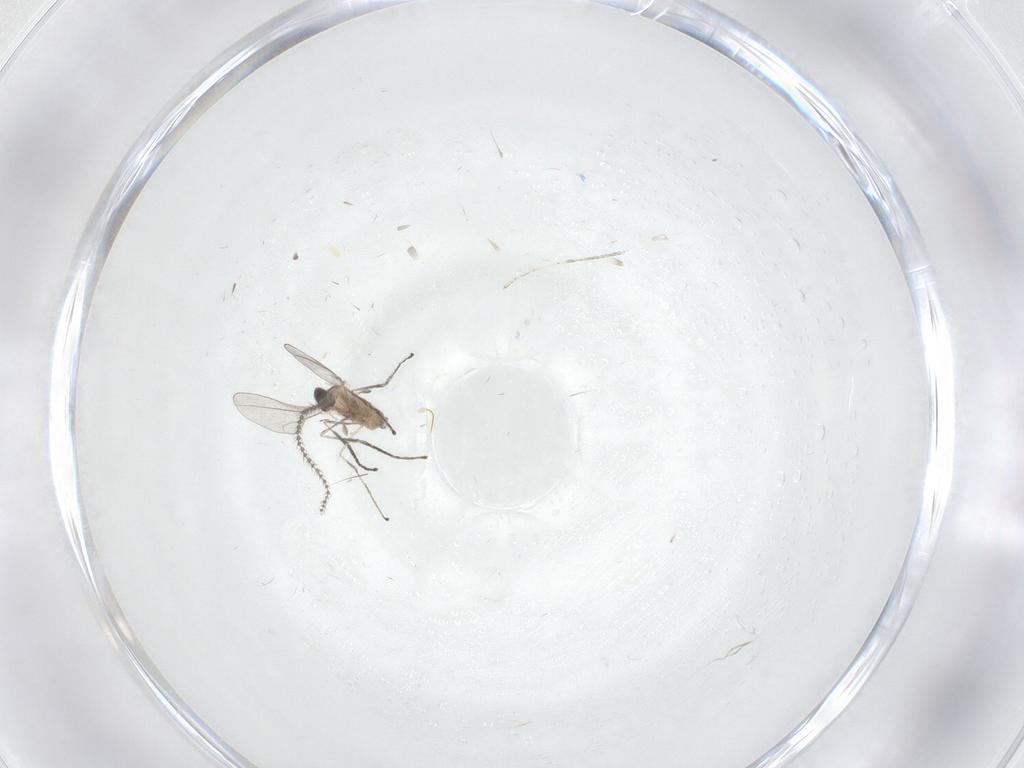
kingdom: Animalia
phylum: Arthropoda
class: Insecta
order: Diptera
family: Cecidomyiidae
